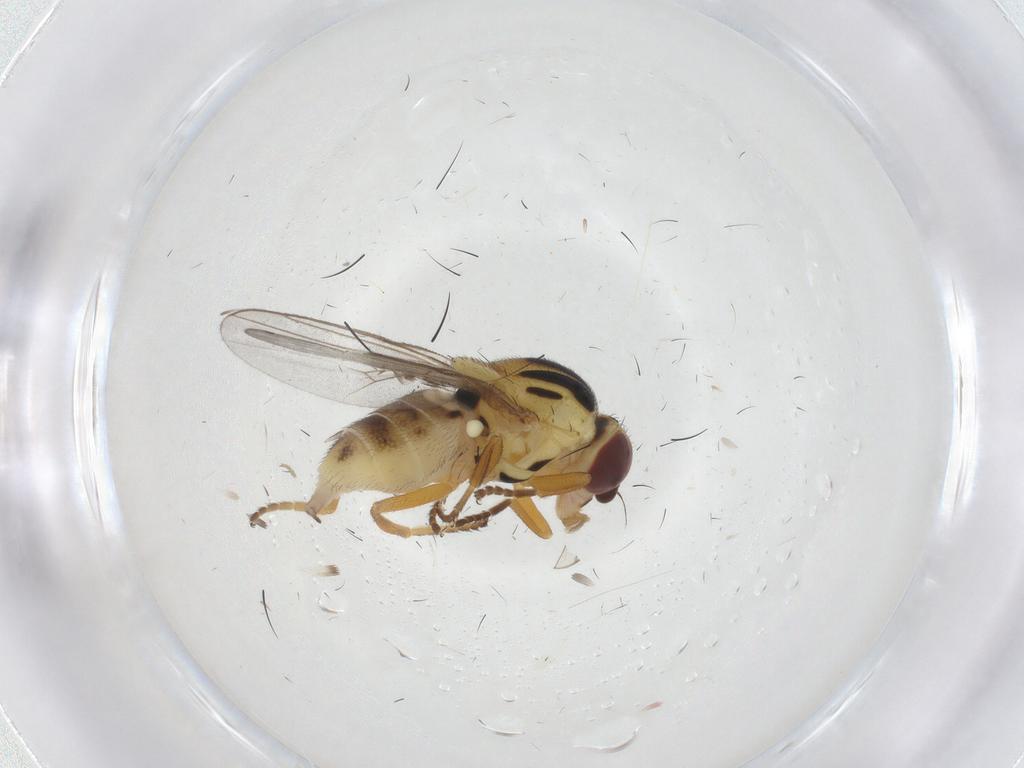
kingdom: Animalia
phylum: Arthropoda
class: Insecta
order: Diptera
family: Chloropidae
